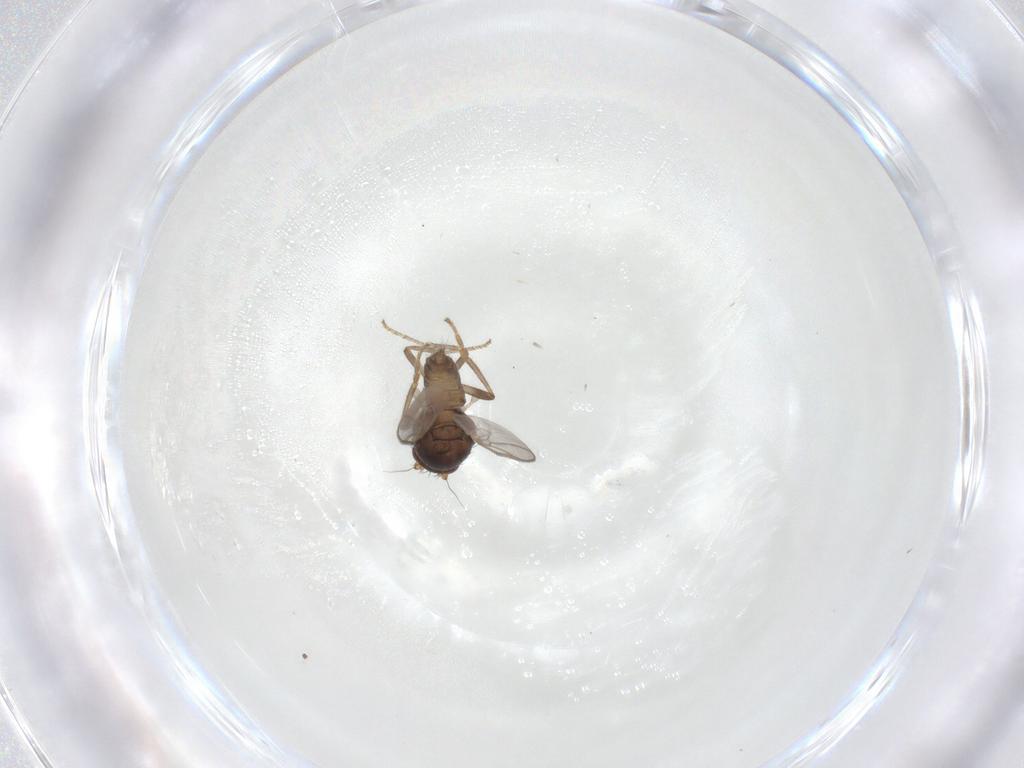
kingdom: Animalia
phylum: Arthropoda
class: Insecta
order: Diptera
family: Sphaeroceridae
